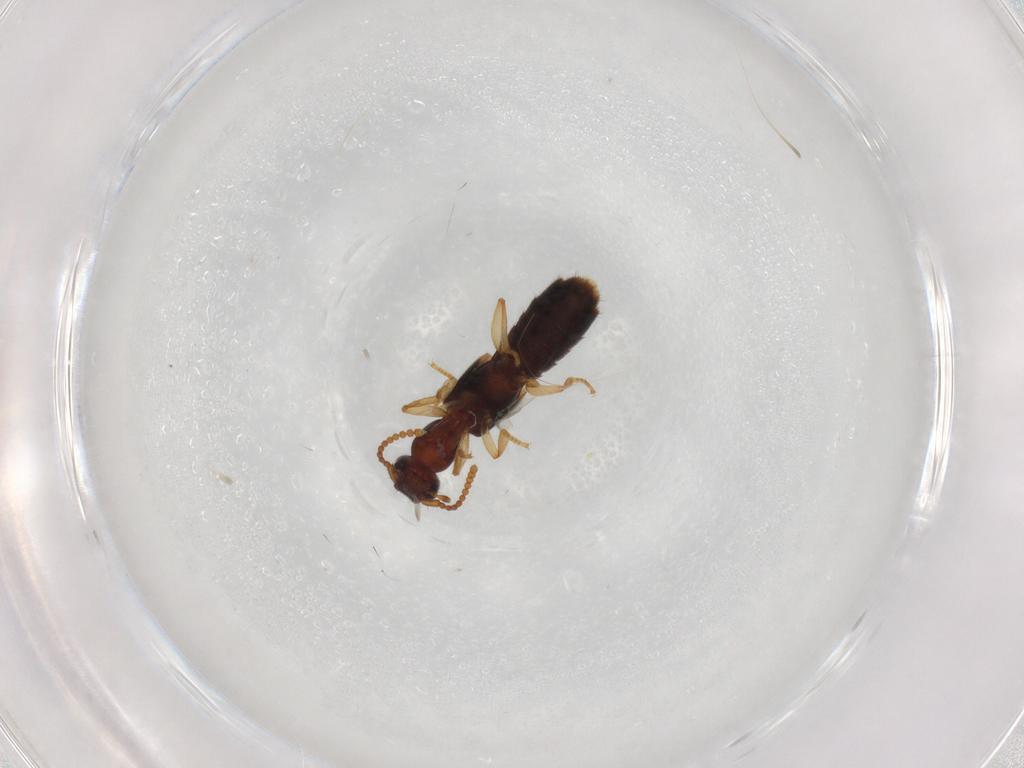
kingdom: Animalia
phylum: Arthropoda
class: Insecta
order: Coleoptera
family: Staphylinidae
